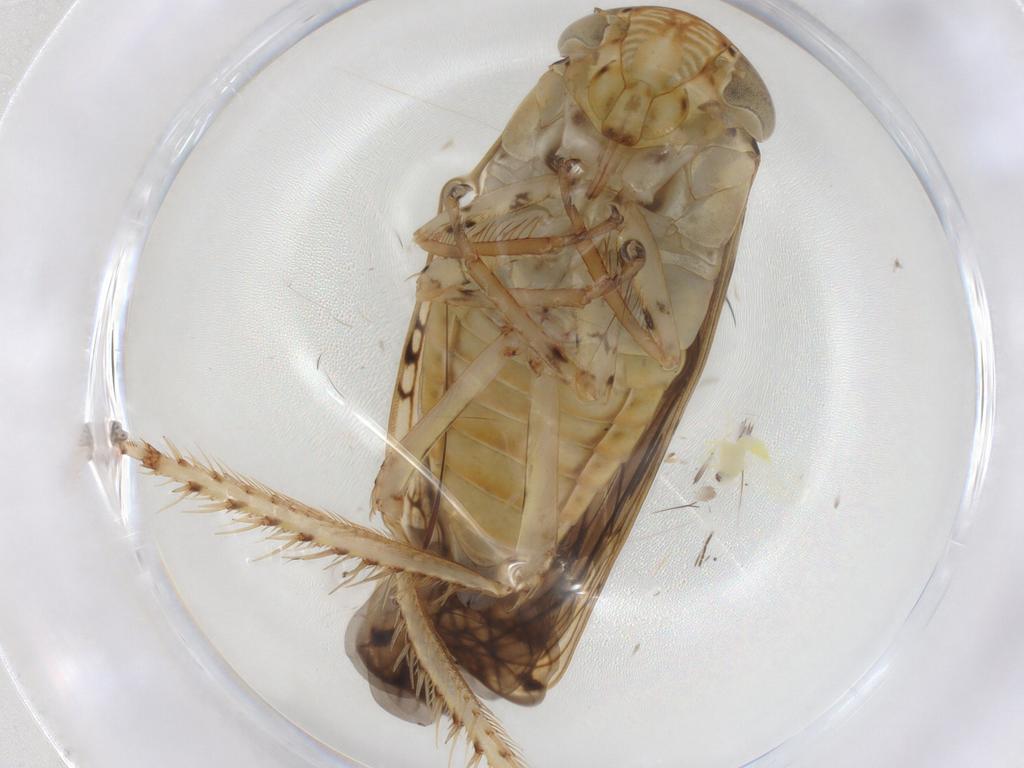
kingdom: Animalia
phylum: Arthropoda
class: Insecta
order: Hemiptera
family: Cicadellidae
